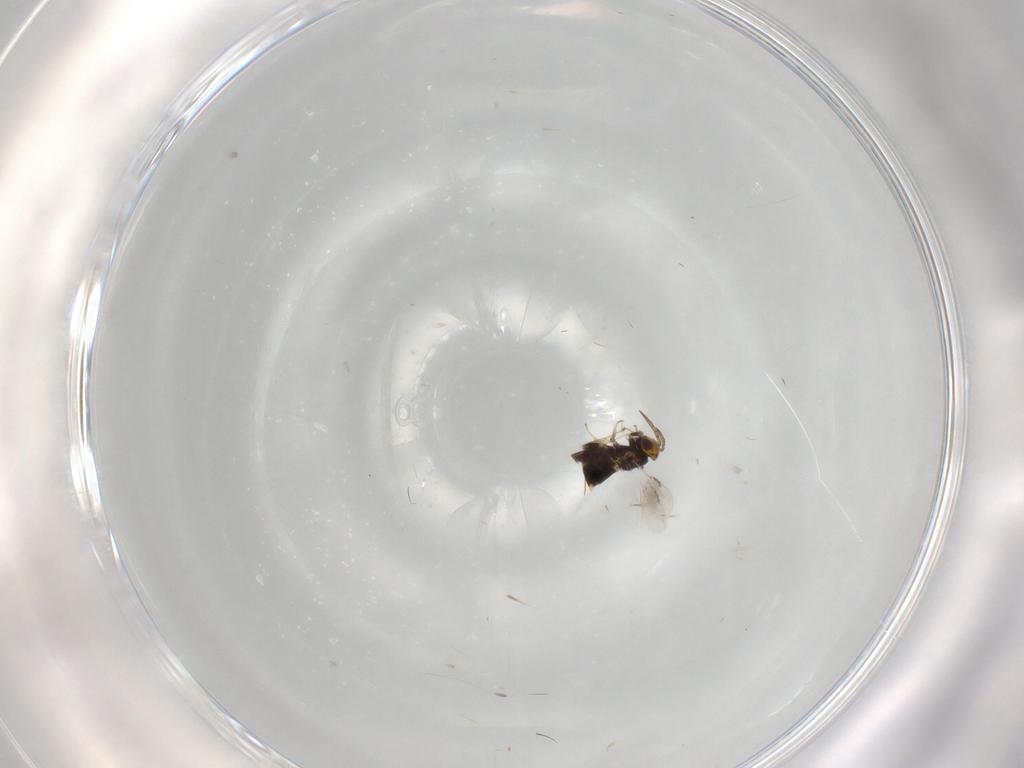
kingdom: Animalia
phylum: Arthropoda
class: Insecta
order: Hymenoptera
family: Aphelinidae
